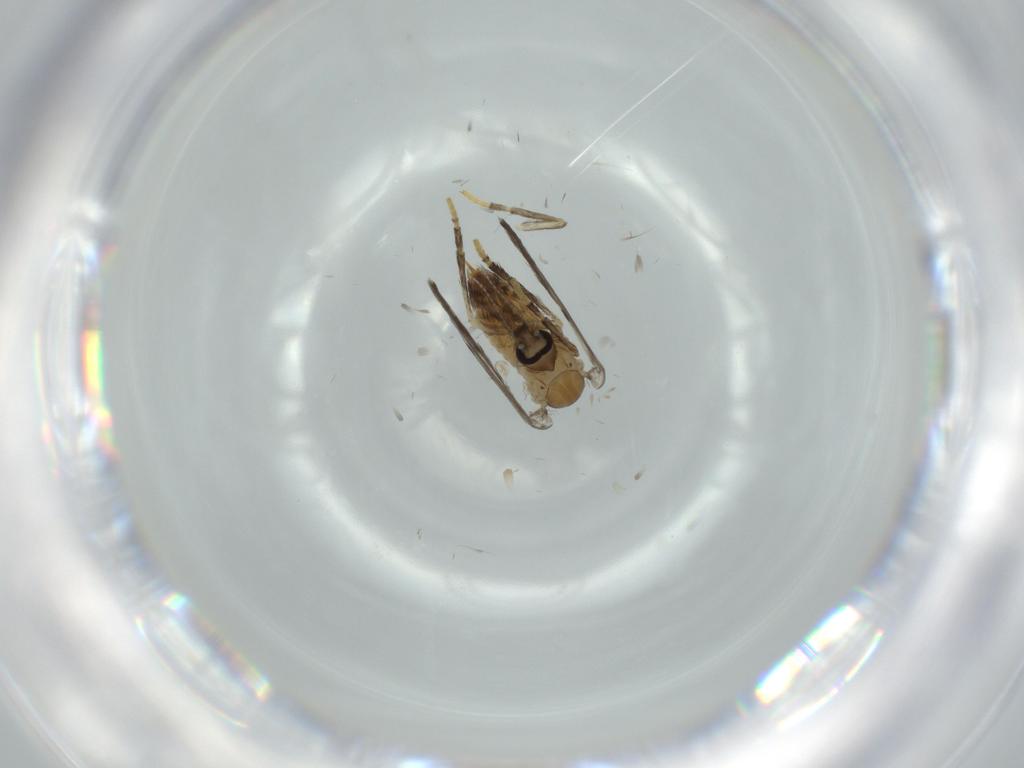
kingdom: Animalia
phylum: Arthropoda
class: Insecta
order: Diptera
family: Psychodidae
